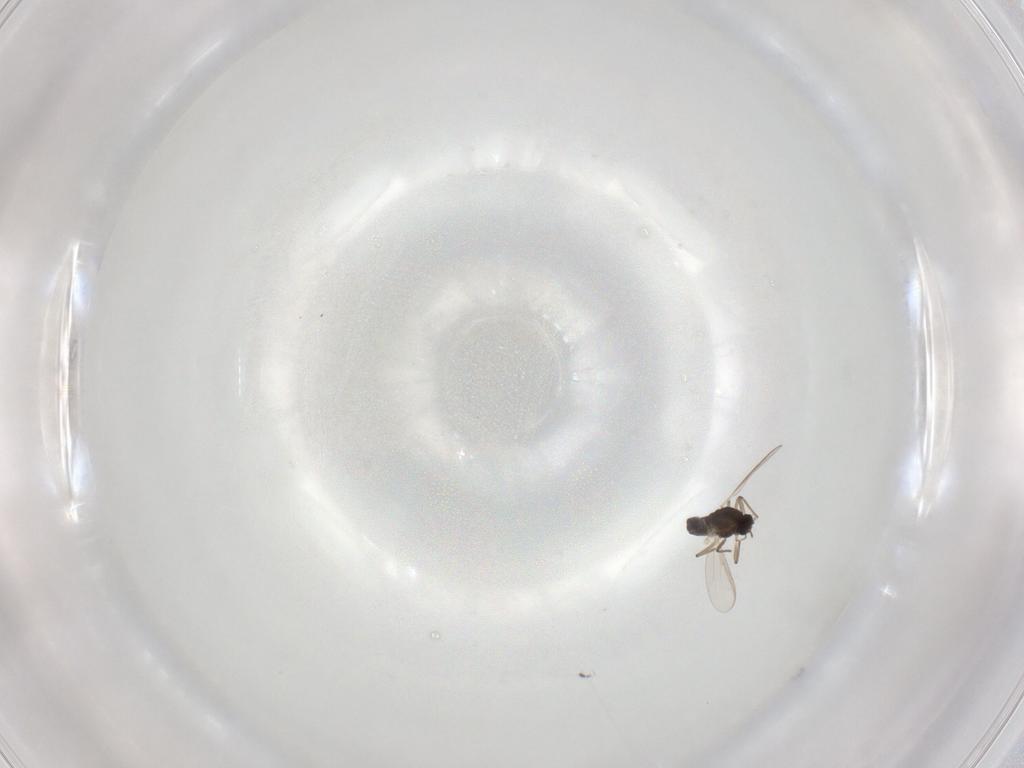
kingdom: Animalia
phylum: Arthropoda
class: Insecta
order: Diptera
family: Chironomidae
